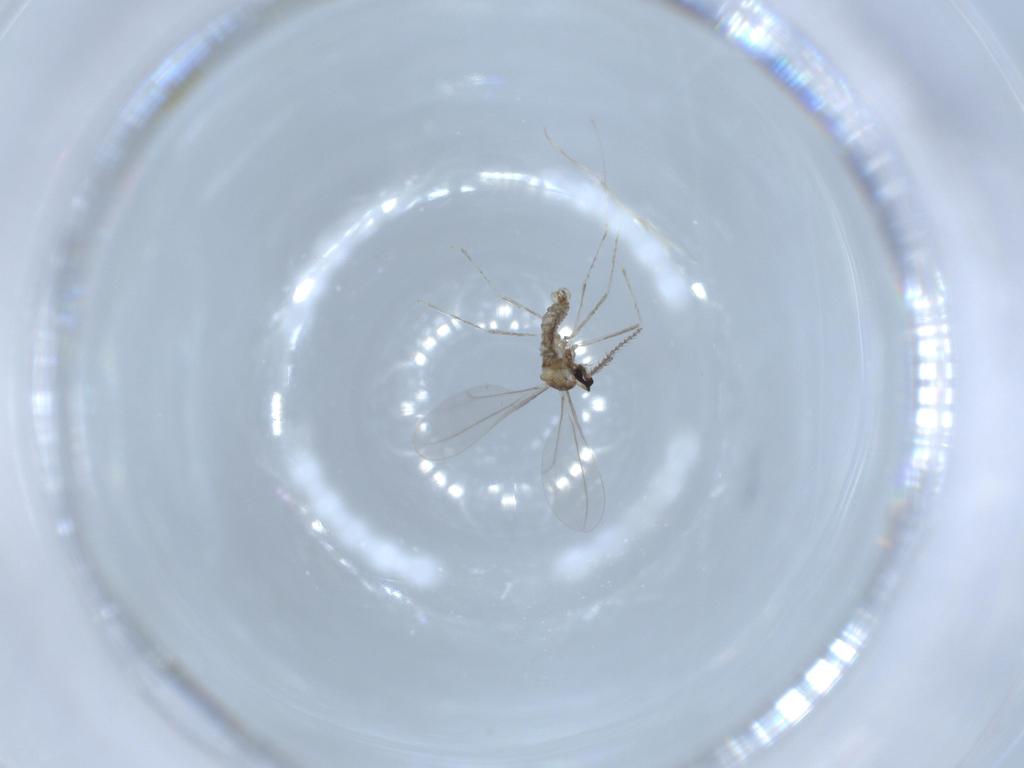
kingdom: Animalia
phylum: Arthropoda
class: Insecta
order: Diptera
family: Cecidomyiidae
